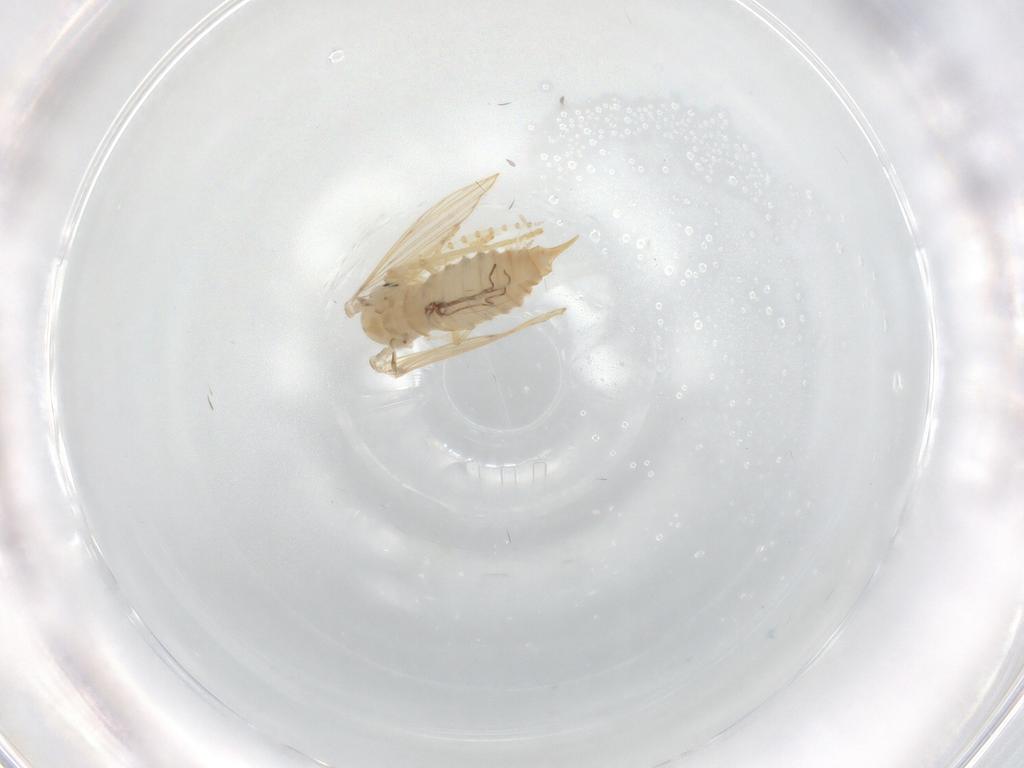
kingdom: Animalia
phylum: Arthropoda
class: Insecta
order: Diptera
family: Psychodidae
